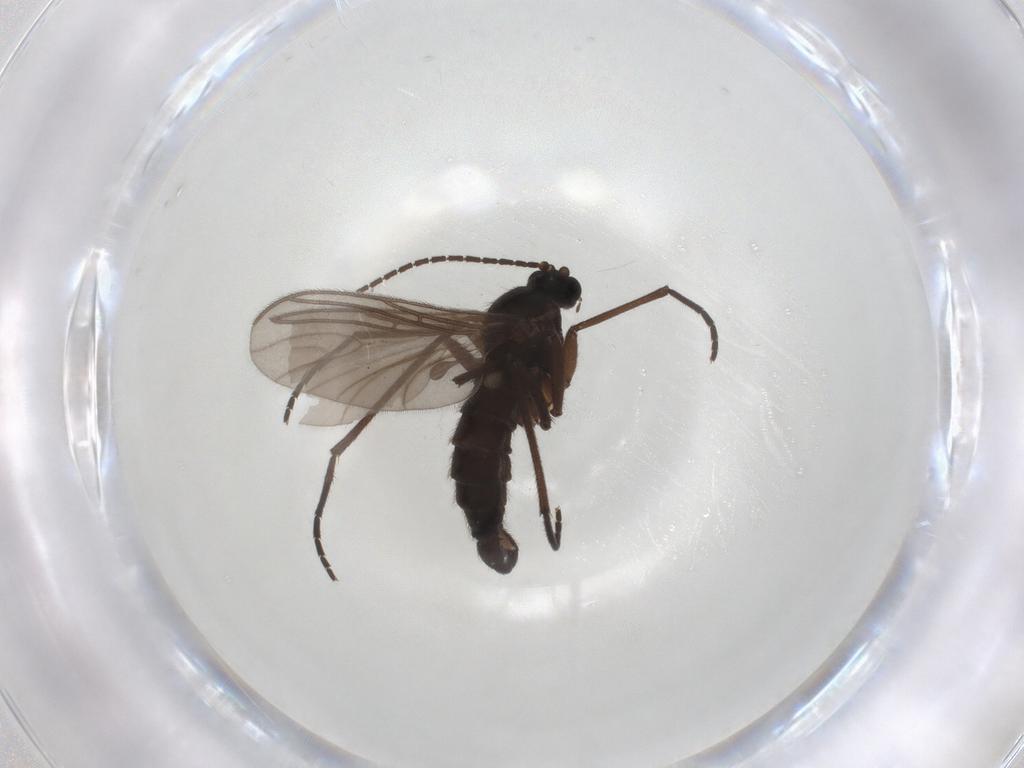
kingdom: Animalia
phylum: Arthropoda
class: Insecta
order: Diptera
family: Sciaridae
